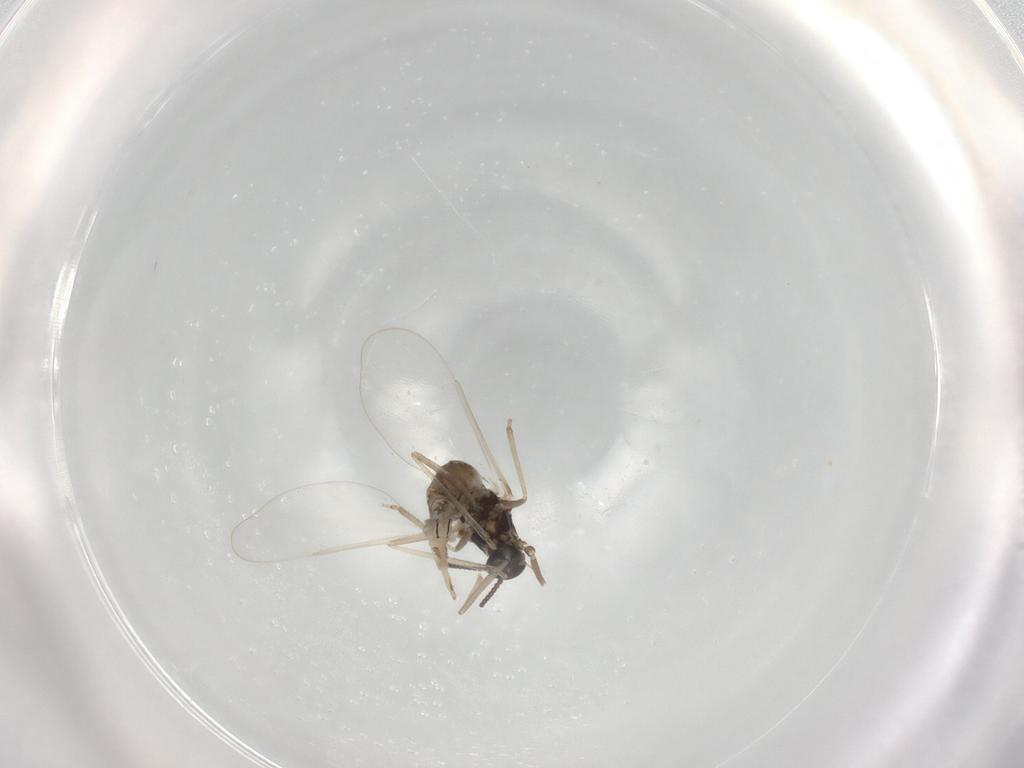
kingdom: Animalia
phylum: Arthropoda
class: Insecta
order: Diptera
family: Cecidomyiidae
